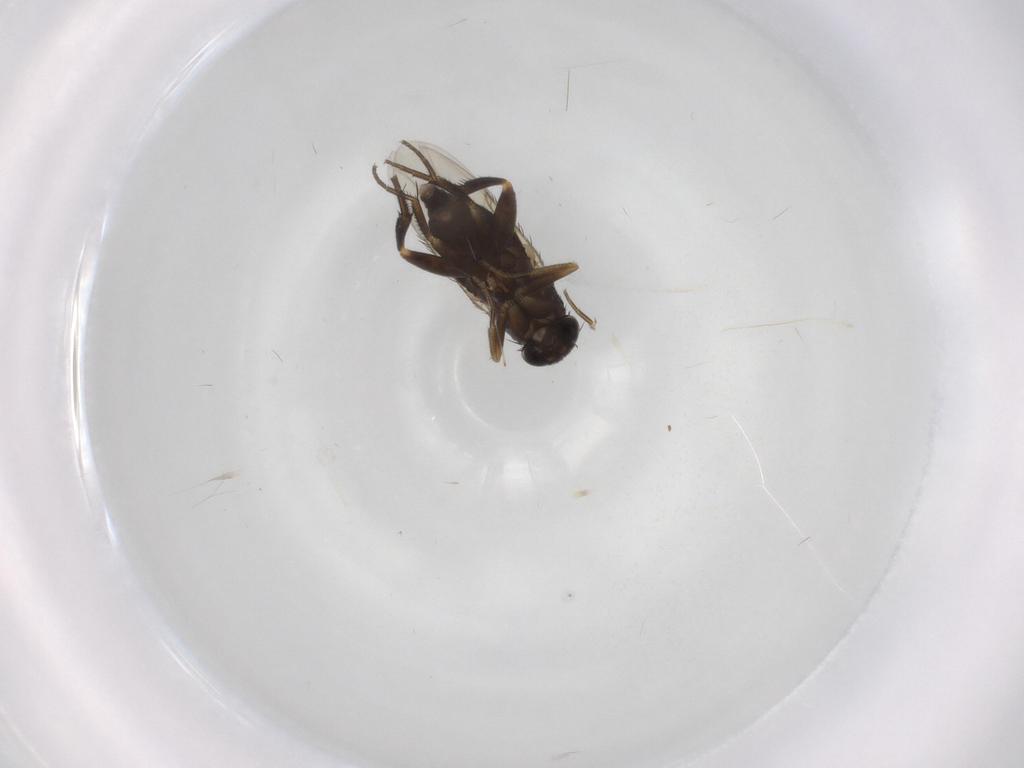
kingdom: Animalia
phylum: Arthropoda
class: Insecta
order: Diptera
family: Phoridae
